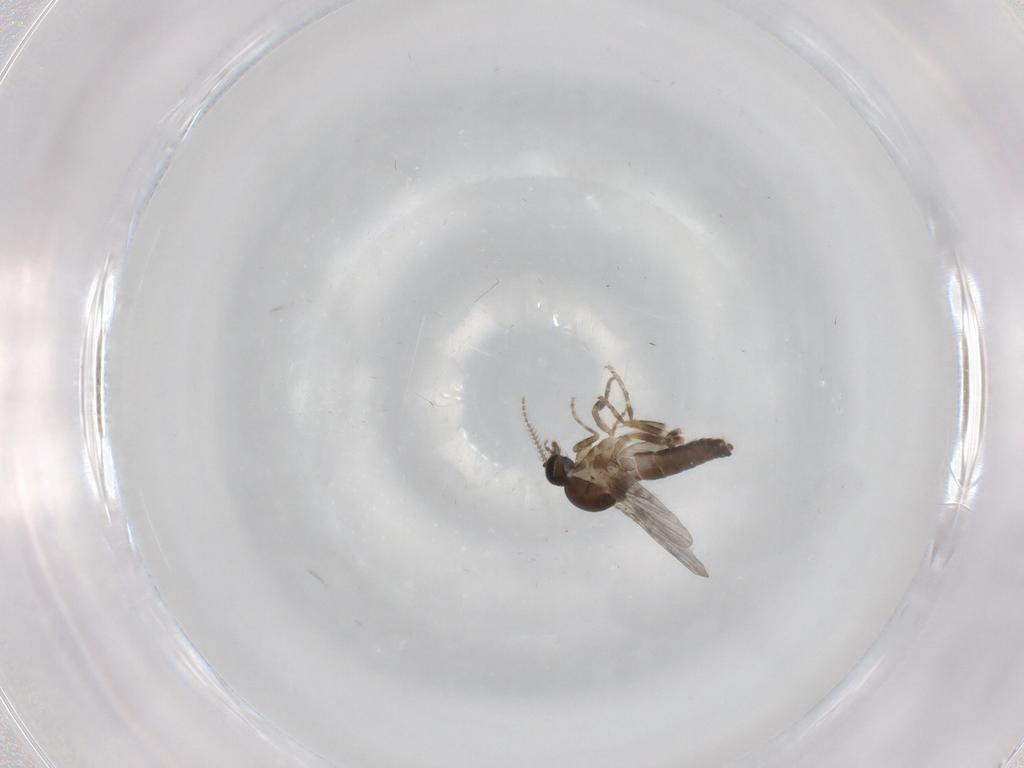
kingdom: Animalia
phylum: Arthropoda
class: Insecta
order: Diptera
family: Ceratopogonidae
